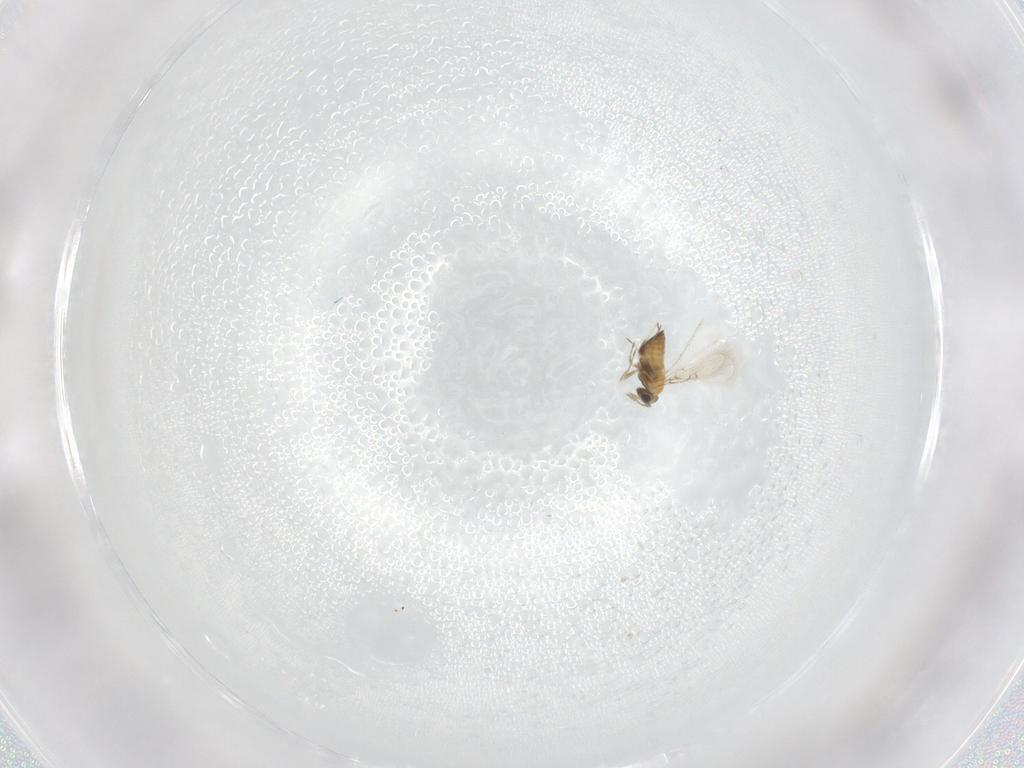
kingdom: Animalia
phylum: Arthropoda
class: Insecta
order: Hymenoptera
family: Trichogrammatidae
